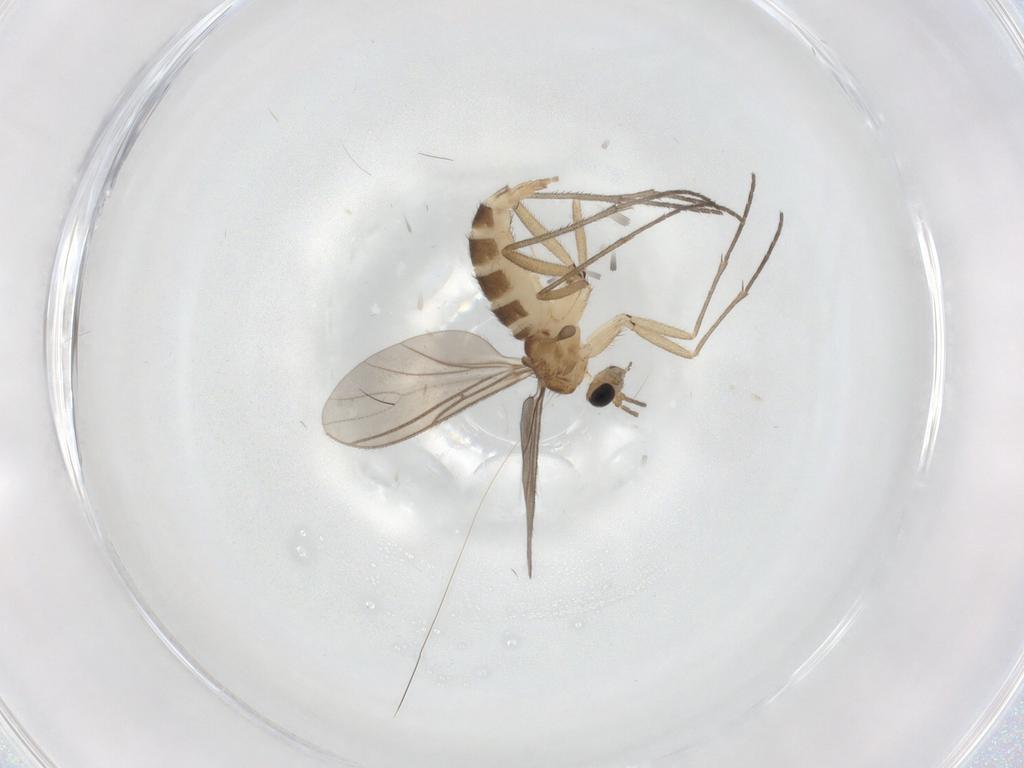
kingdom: Animalia
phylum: Arthropoda
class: Insecta
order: Diptera
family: Sciaridae
